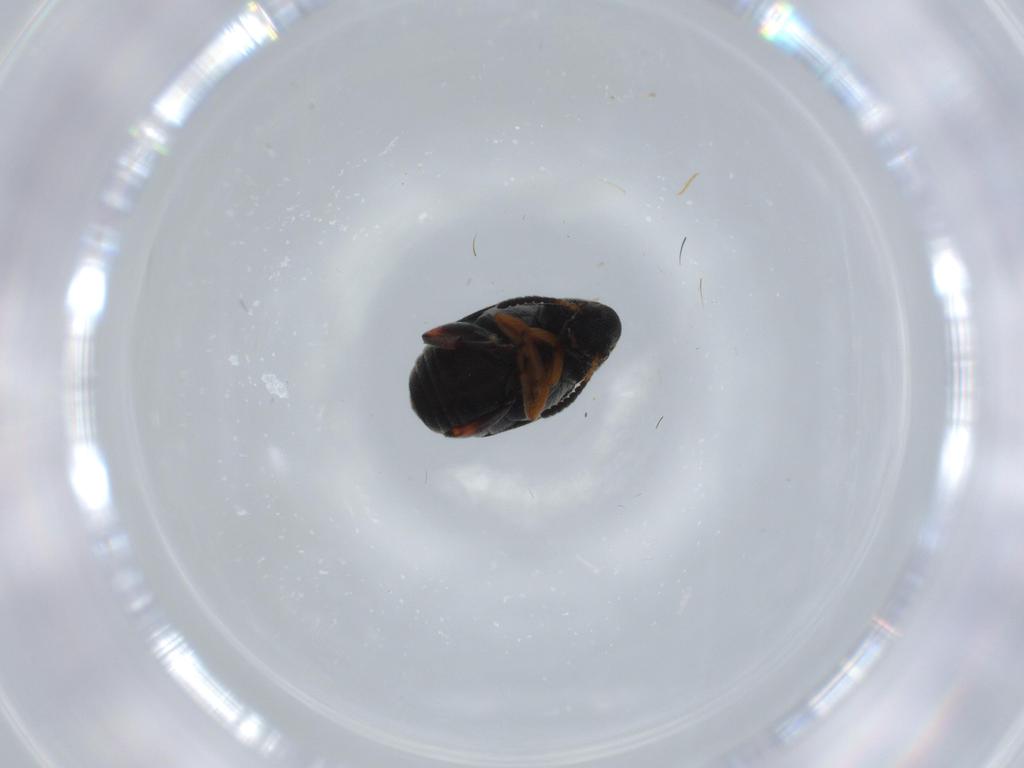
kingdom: Animalia
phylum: Arthropoda
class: Insecta
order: Coleoptera
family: Chrysomelidae
